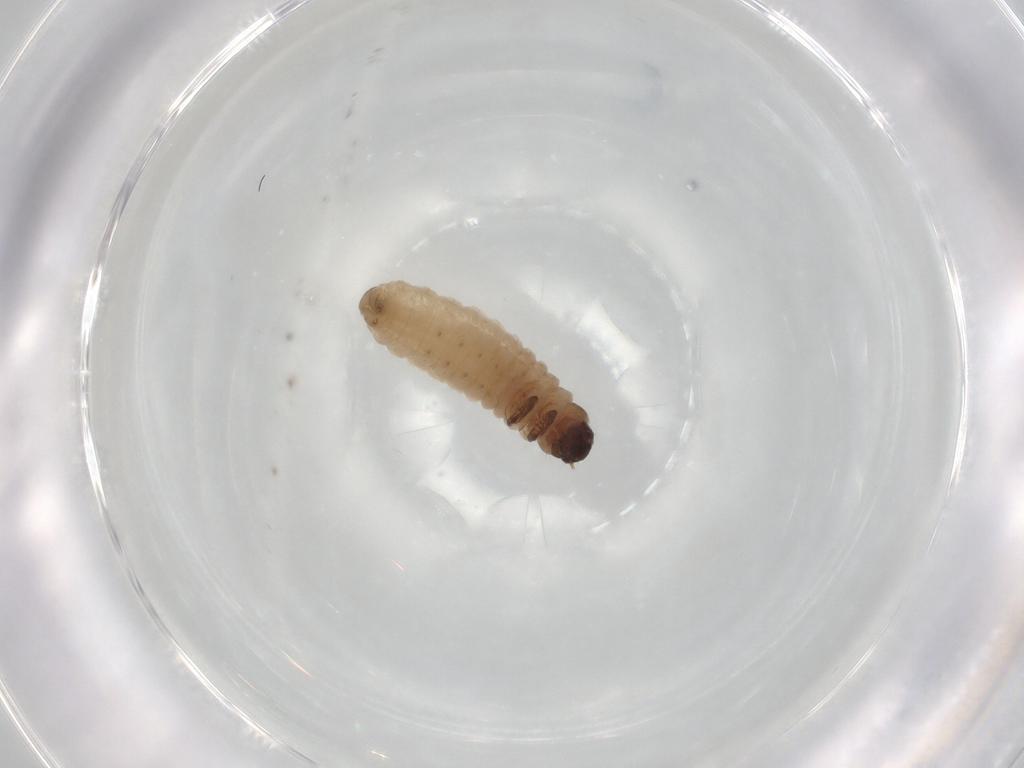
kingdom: Animalia
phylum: Arthropoda
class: Insecta
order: Lepidoptera
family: Psychidae
